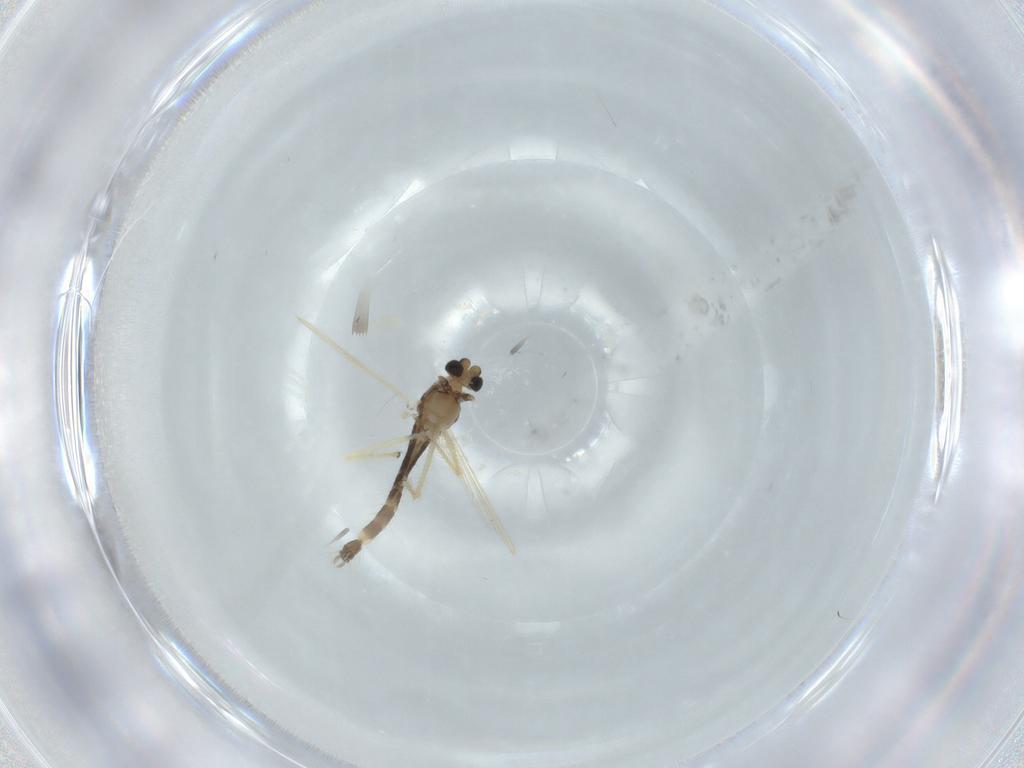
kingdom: Animalia
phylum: Arthropoda
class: Insecta
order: Diptera
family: Chironomidae
